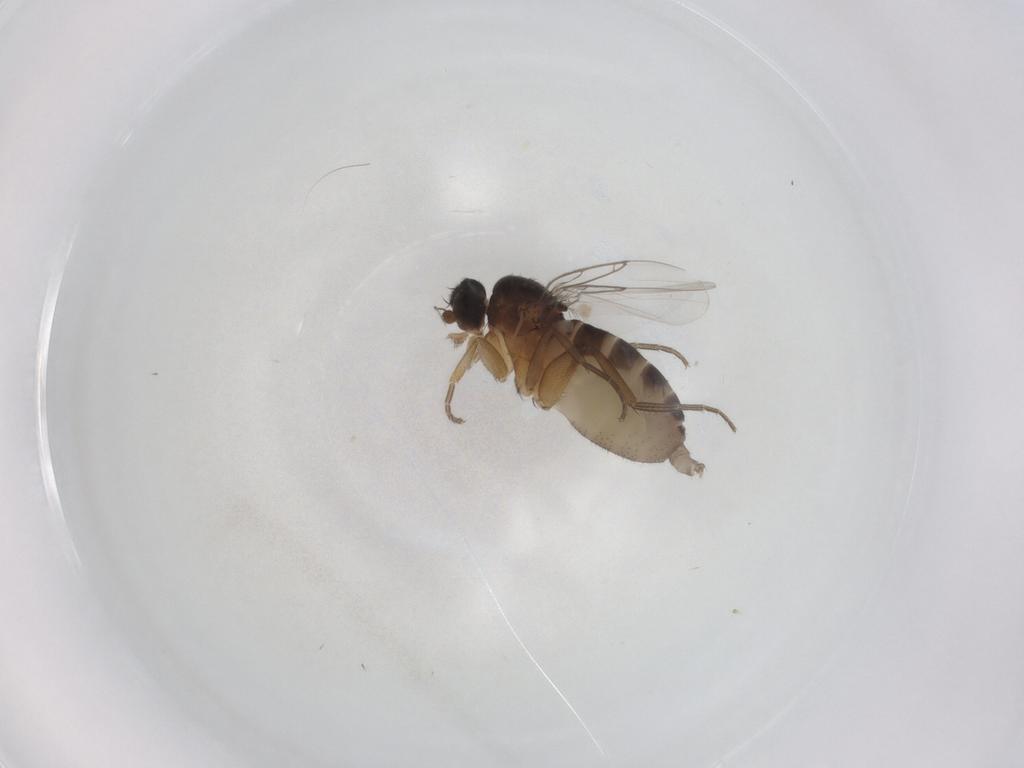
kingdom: Animalia
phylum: Arthropoda
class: Insecta
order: Diptera
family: Phoridae
